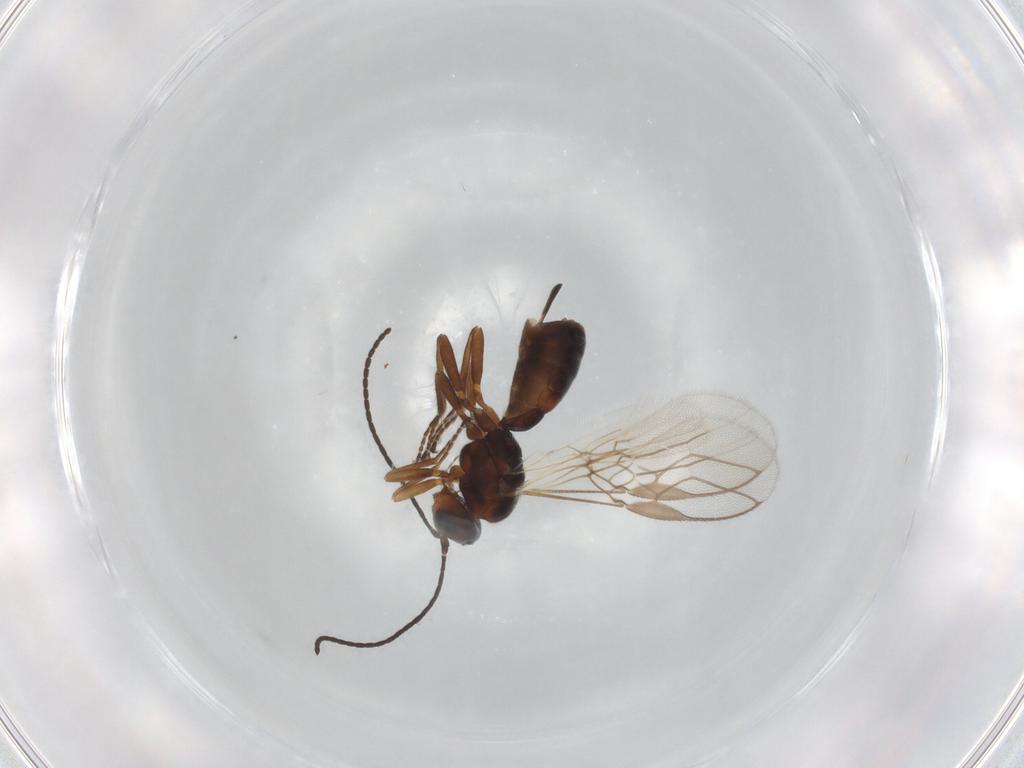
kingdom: Animalia
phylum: Arthropoda
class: Insecta
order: Hymenoptera
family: Braconidae
